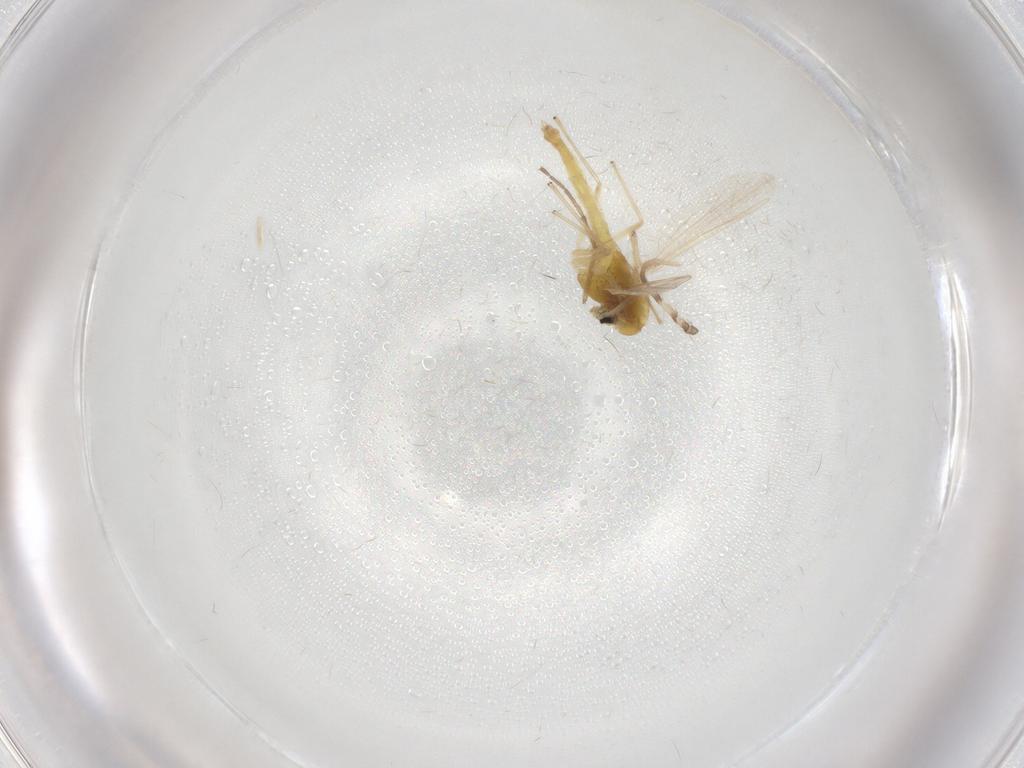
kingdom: Animalia
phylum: Arthropoda
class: Insecta
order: Diptera
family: Chironomidae
